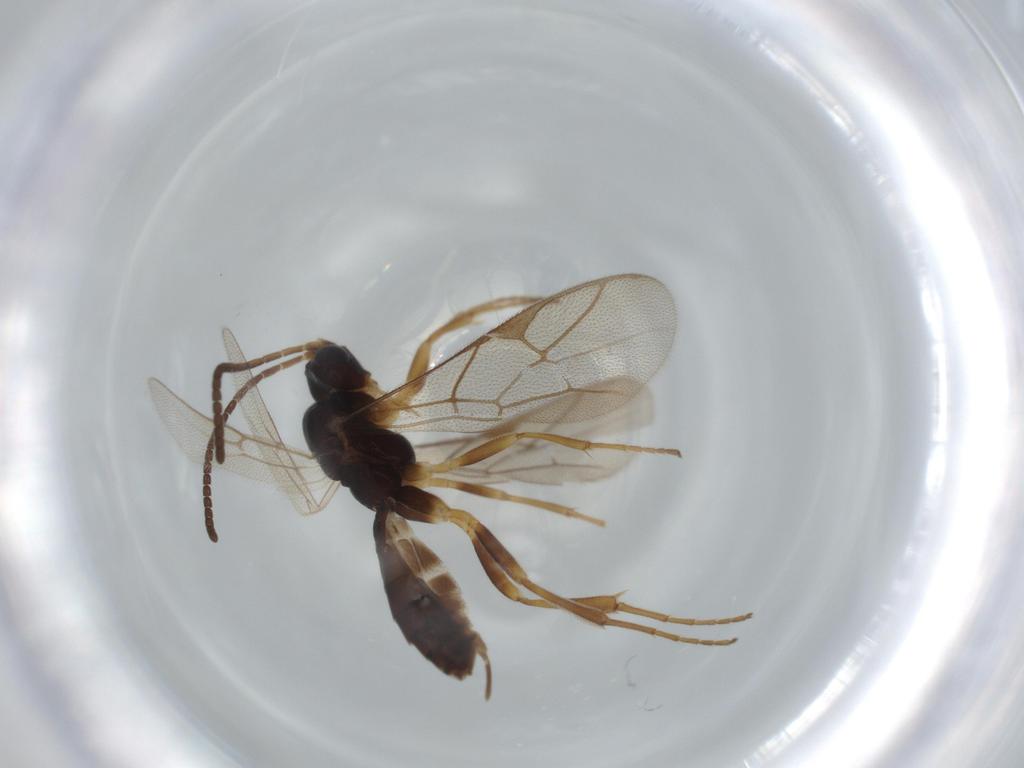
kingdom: Animalia
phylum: Arthropoda
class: Insecta
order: Hymenoptera
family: Ichneumonidae
